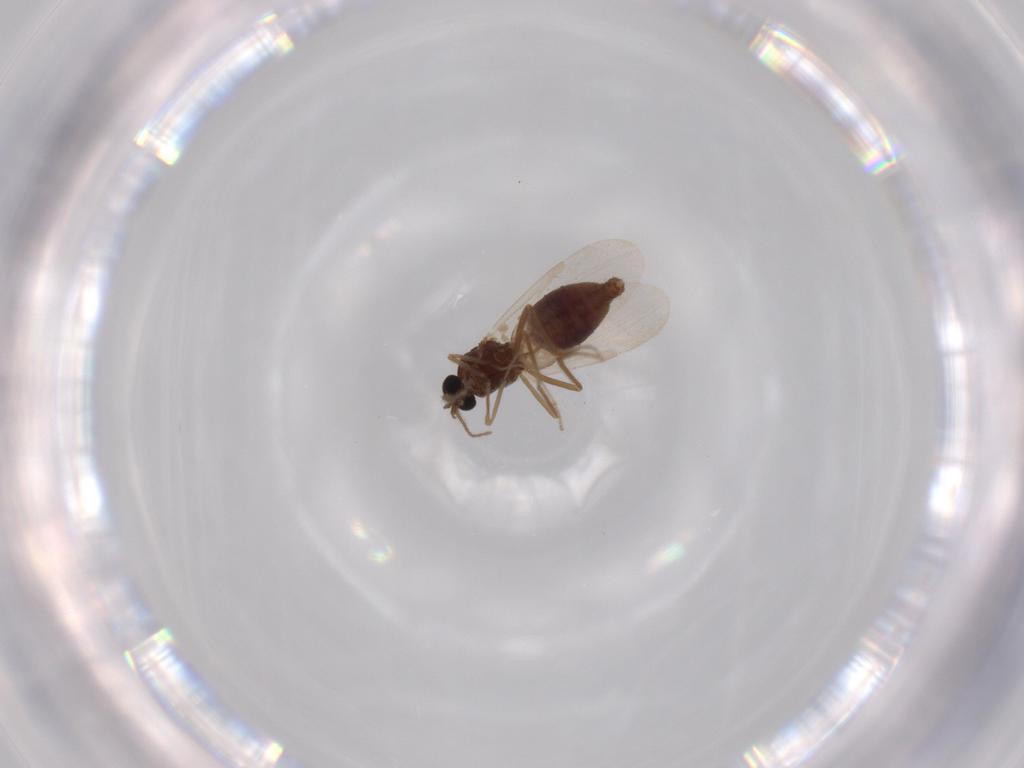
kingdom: Animalia
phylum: Arthropoda
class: Insecta
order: Diptera
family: Ceratopogonidae
